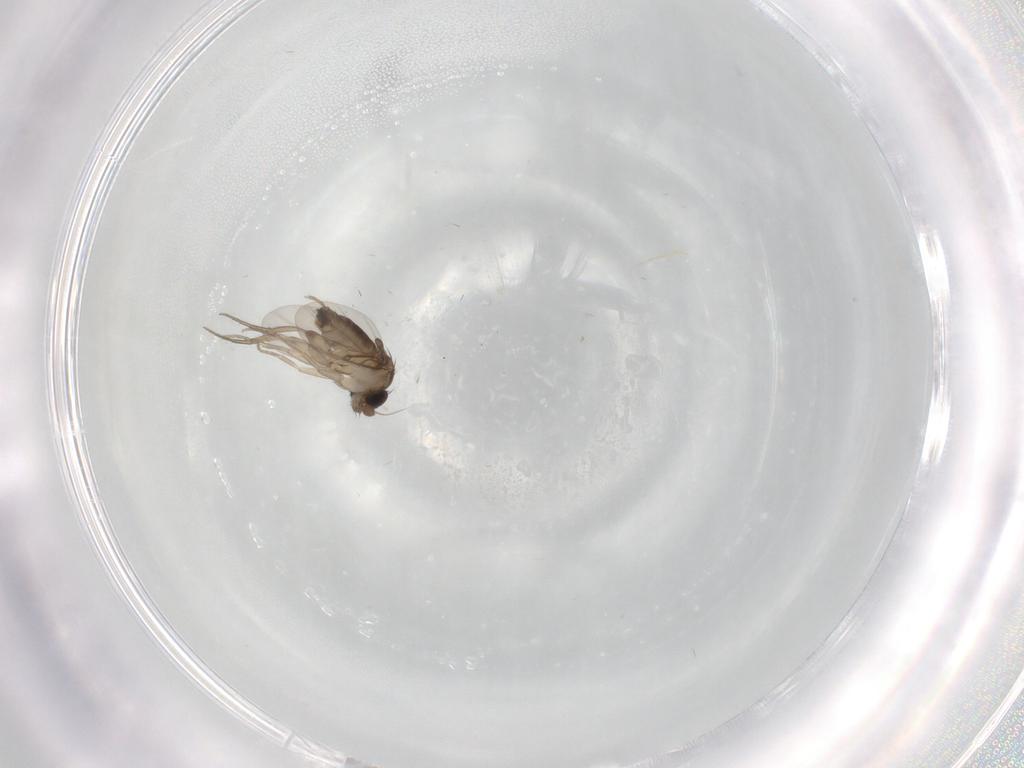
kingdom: Animalia
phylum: Arthropoda
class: Insecta
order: Diptera
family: Phoridae
